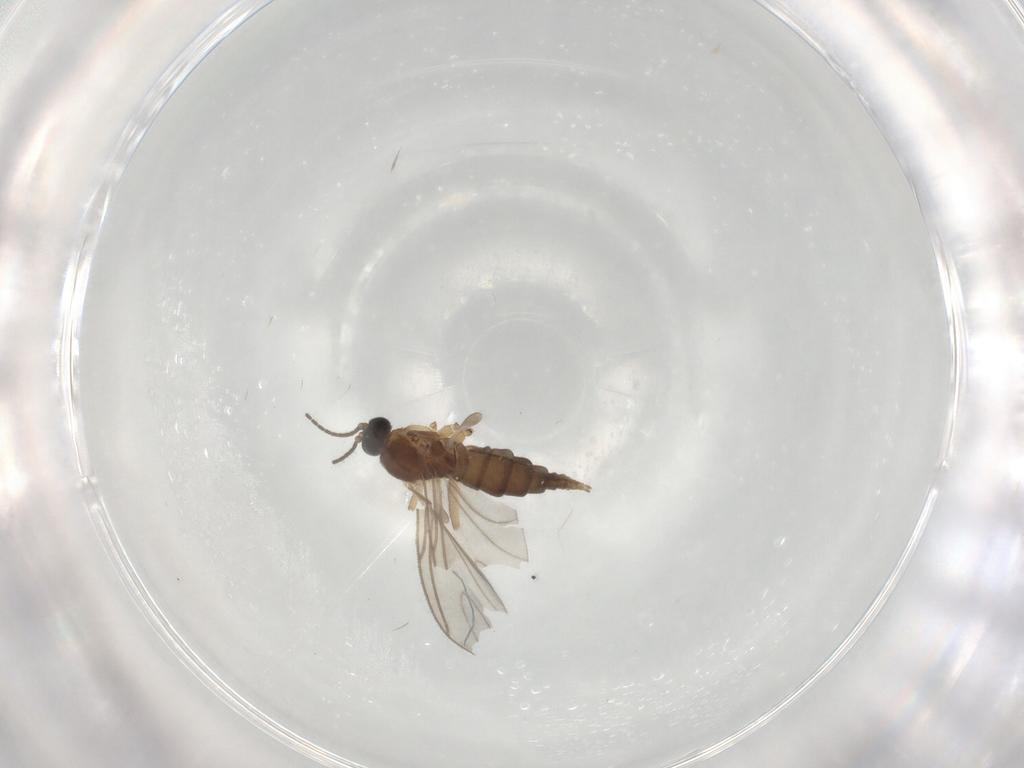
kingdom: Animalia
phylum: Arthropoda
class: Insecta
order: Diptera
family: Sciaridae
